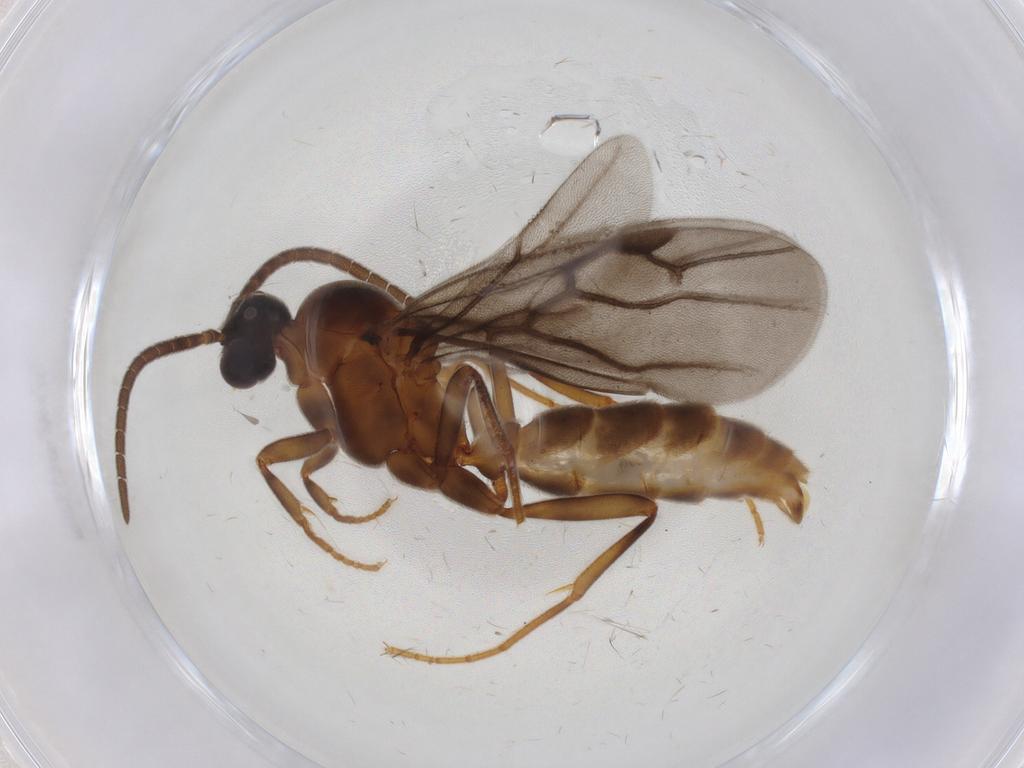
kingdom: Animalia
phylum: Arthropoda
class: Insecta
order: Hymenoptera
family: Formicidae
